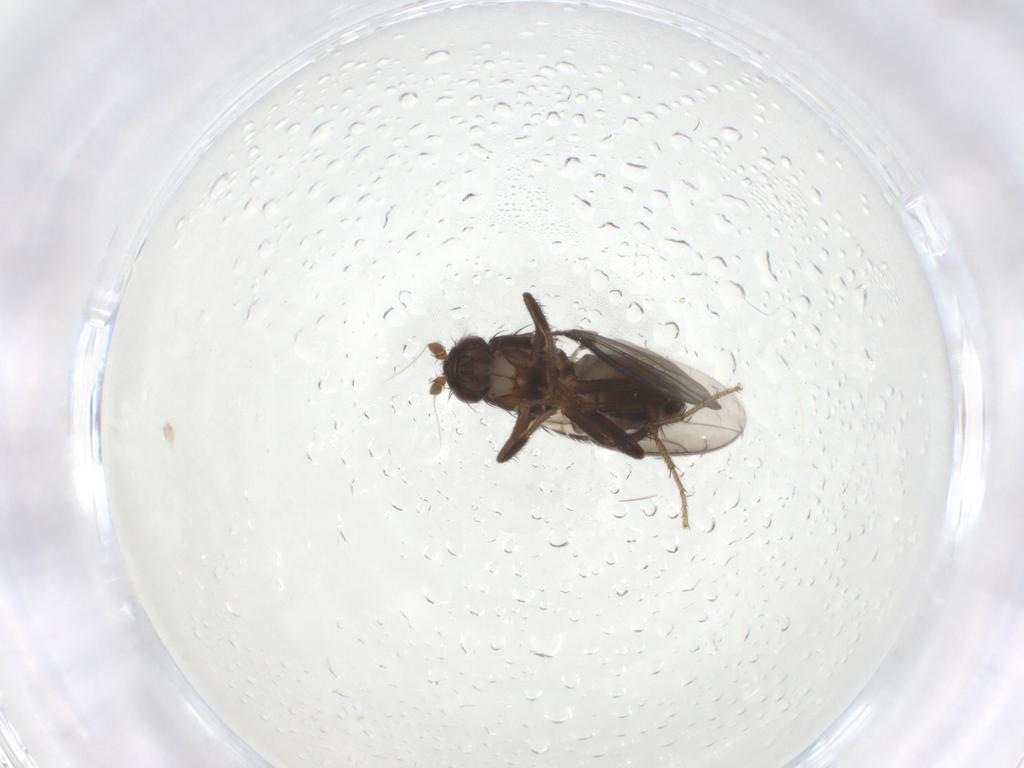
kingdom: Animalia
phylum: Arthropoda
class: Insecta
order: Diptera
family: Sphaeroceridae
